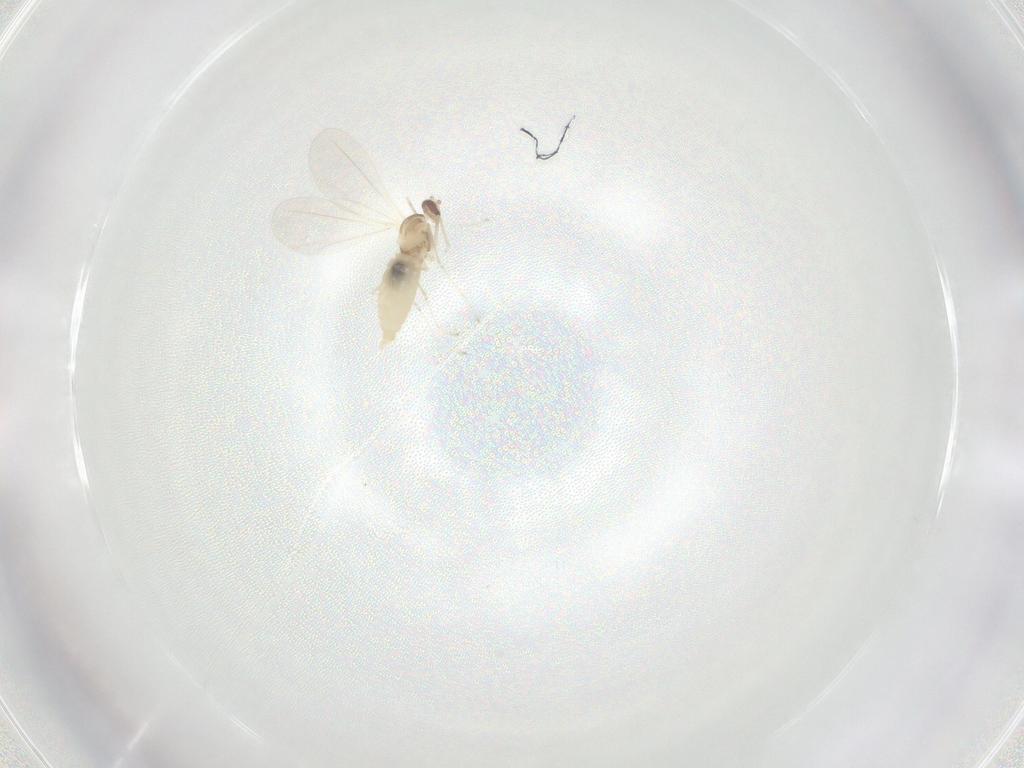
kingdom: Animalia
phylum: Arthropoda
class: Insecta
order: Diptera
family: Cecidomyiidae
